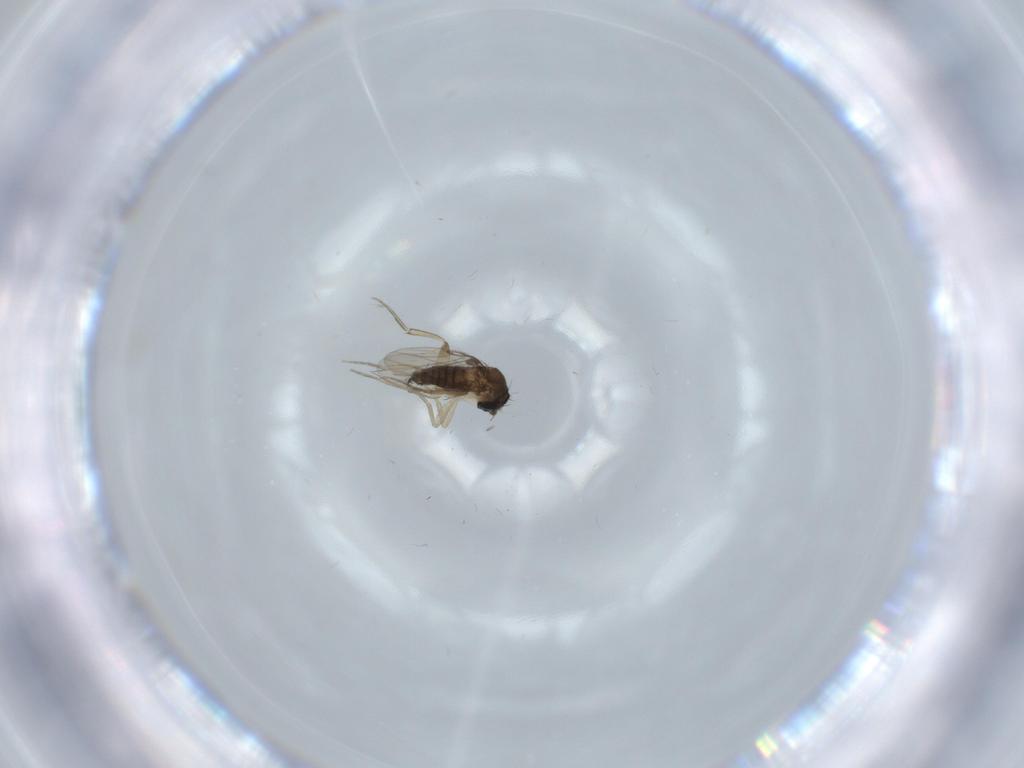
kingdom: Animalia
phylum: Arthropoda
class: Insecta
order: Diptera
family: Phoridae
